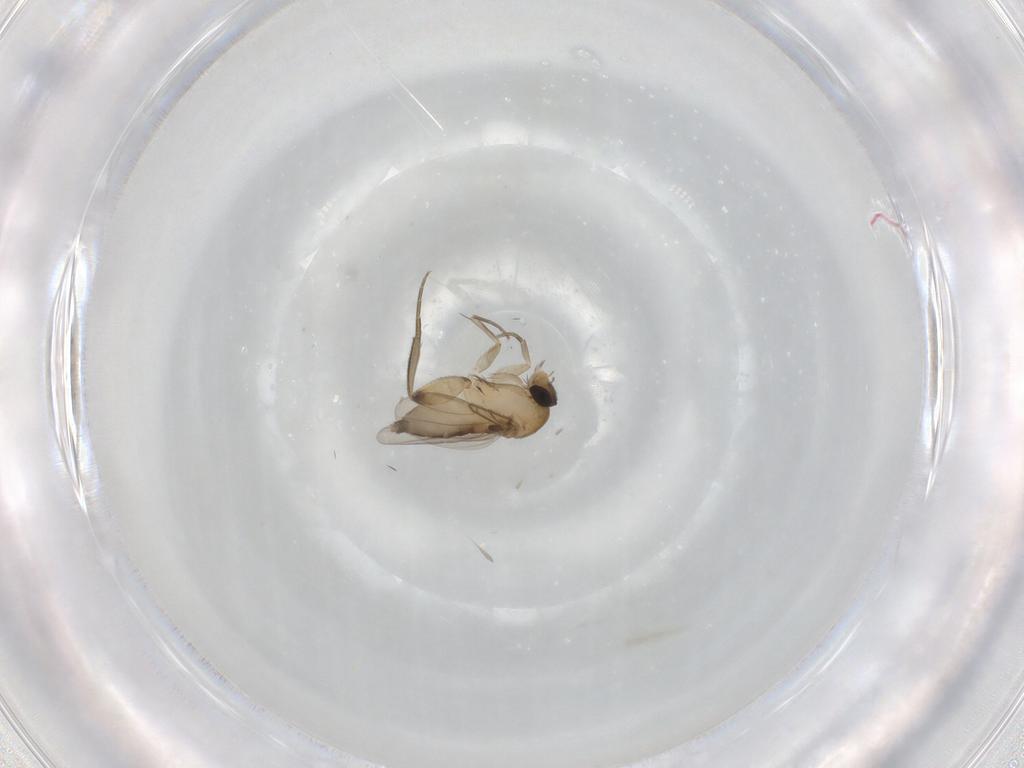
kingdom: Animalia
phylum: Arthropoda
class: Insecta
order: Diptera
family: Phoridae
